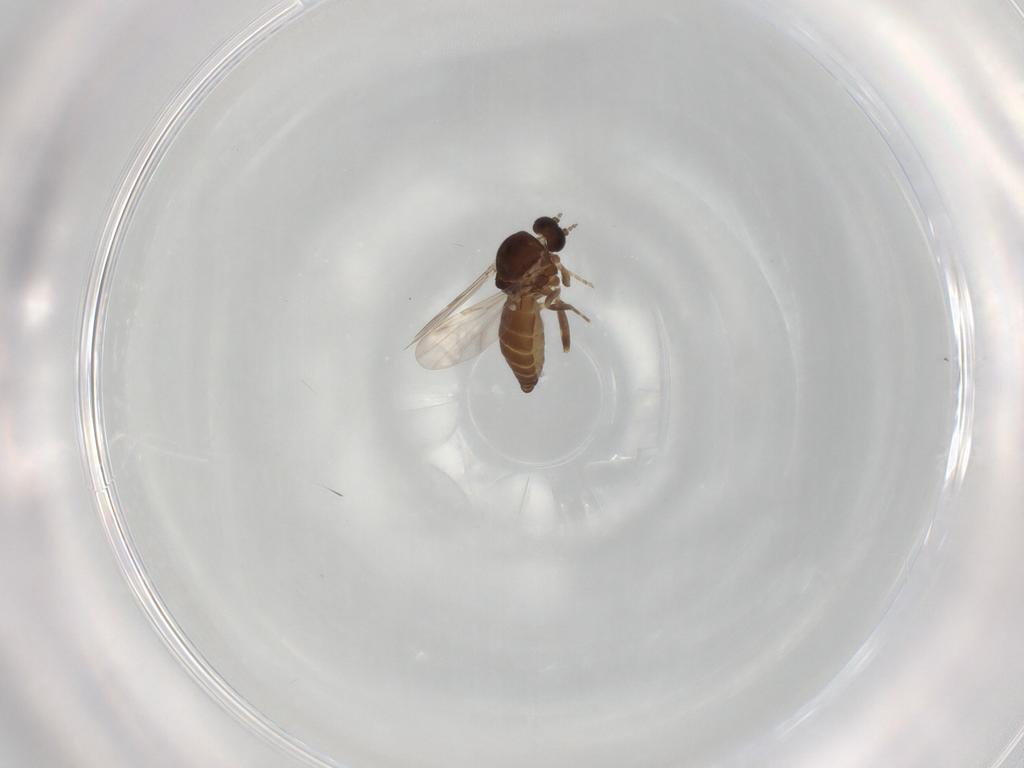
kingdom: Animalia
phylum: Arthropoda
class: Insecta
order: Diptera
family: Ceratopogonidae
